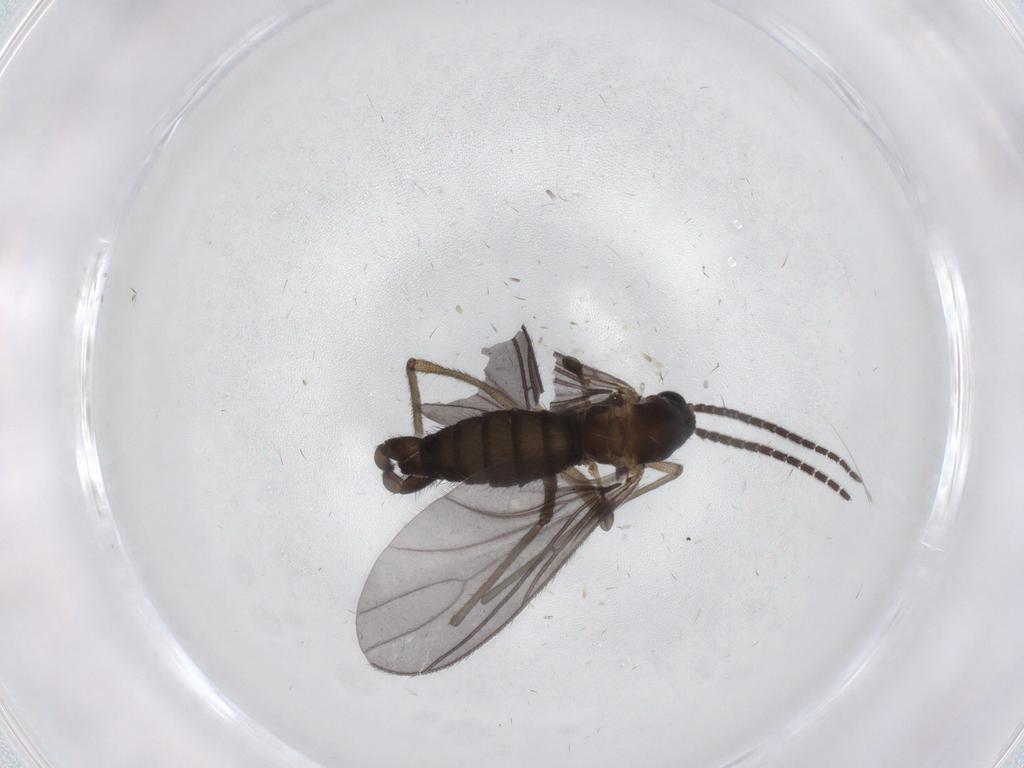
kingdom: Animalia
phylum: Arthropoda
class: Insecta
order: Diptera
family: Sciaridae
